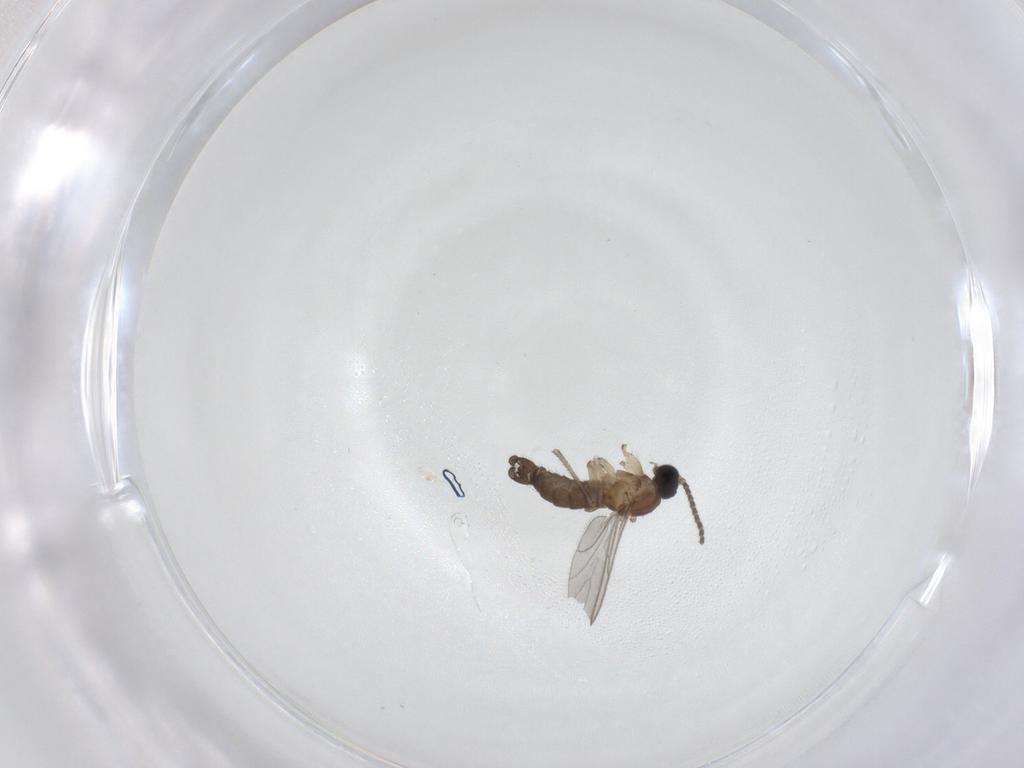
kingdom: Animalia
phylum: Arthropoda
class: Insecta
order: Diptera
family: Sciaridae
